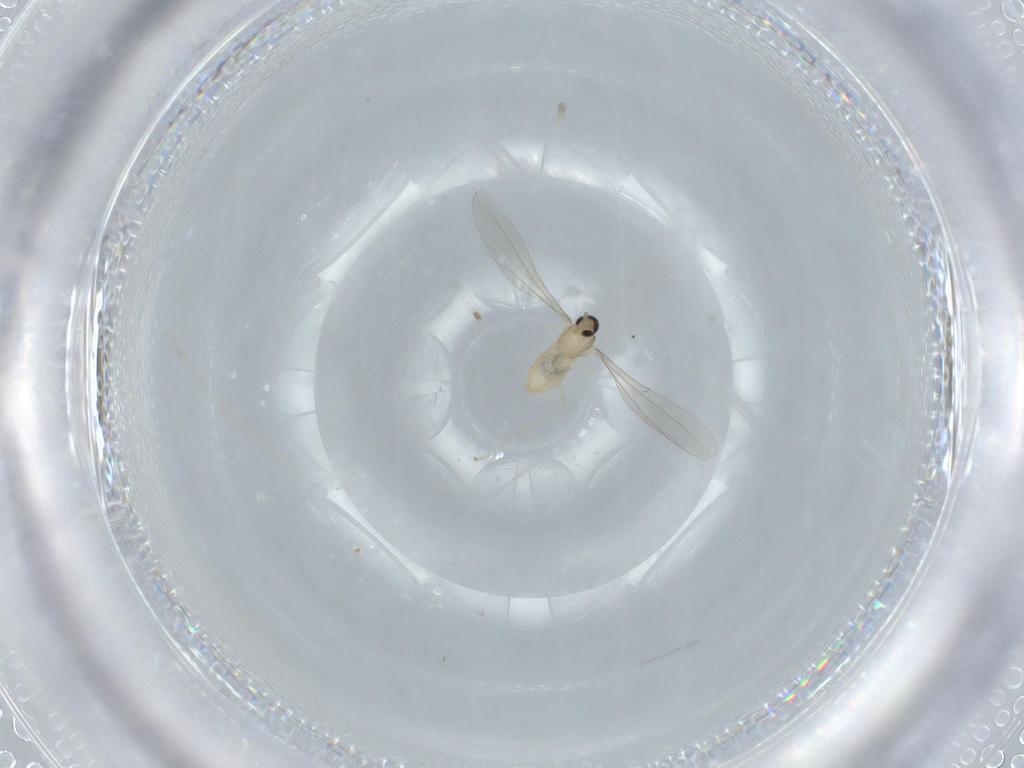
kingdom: Animalia
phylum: Arthropoda
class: Insecta
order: Diptera
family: Cecidomyiidae
